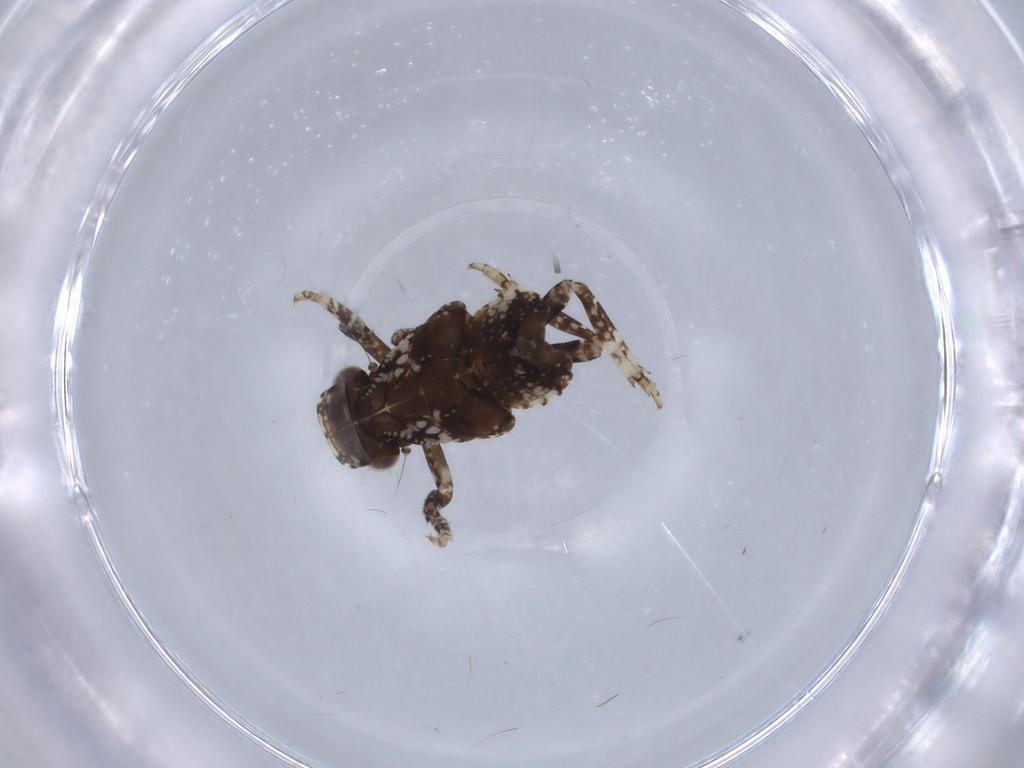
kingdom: Animalia
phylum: Arthropoda
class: Insecta
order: Hemiptera
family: Fulgoridae
